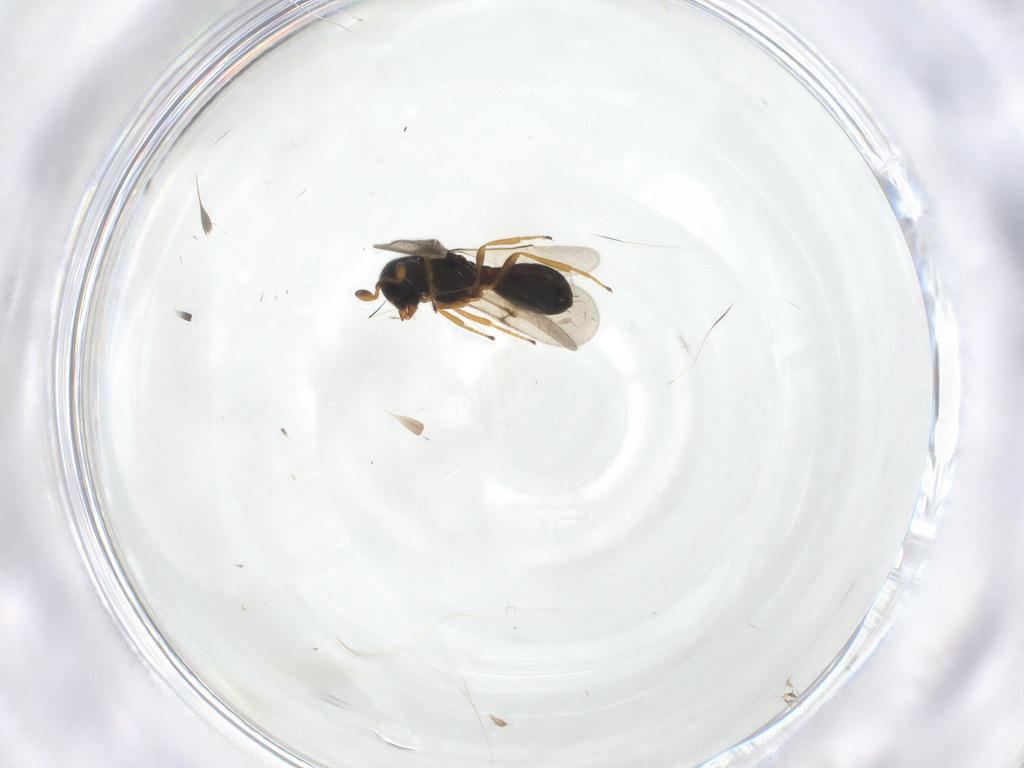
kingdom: Animalia
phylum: Arthropoda
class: Insecta
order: Hymenoptera
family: Scelionidae
